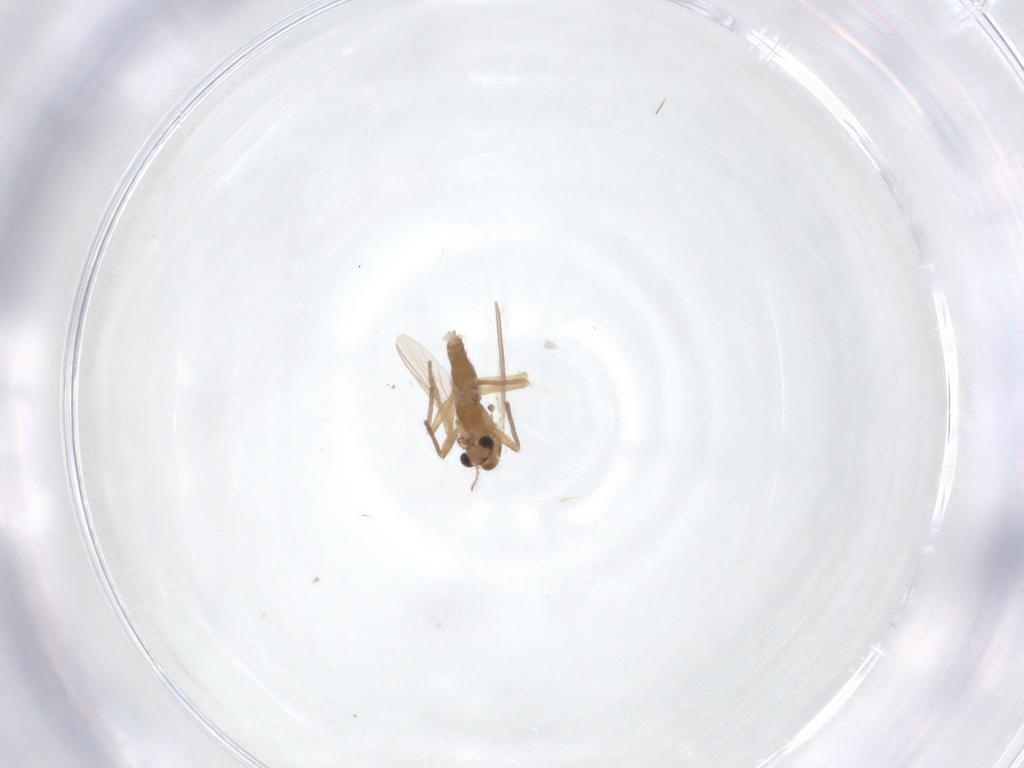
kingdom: Animalia
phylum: Arthropoda
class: Insecta
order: Diptera
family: Chironomidae
